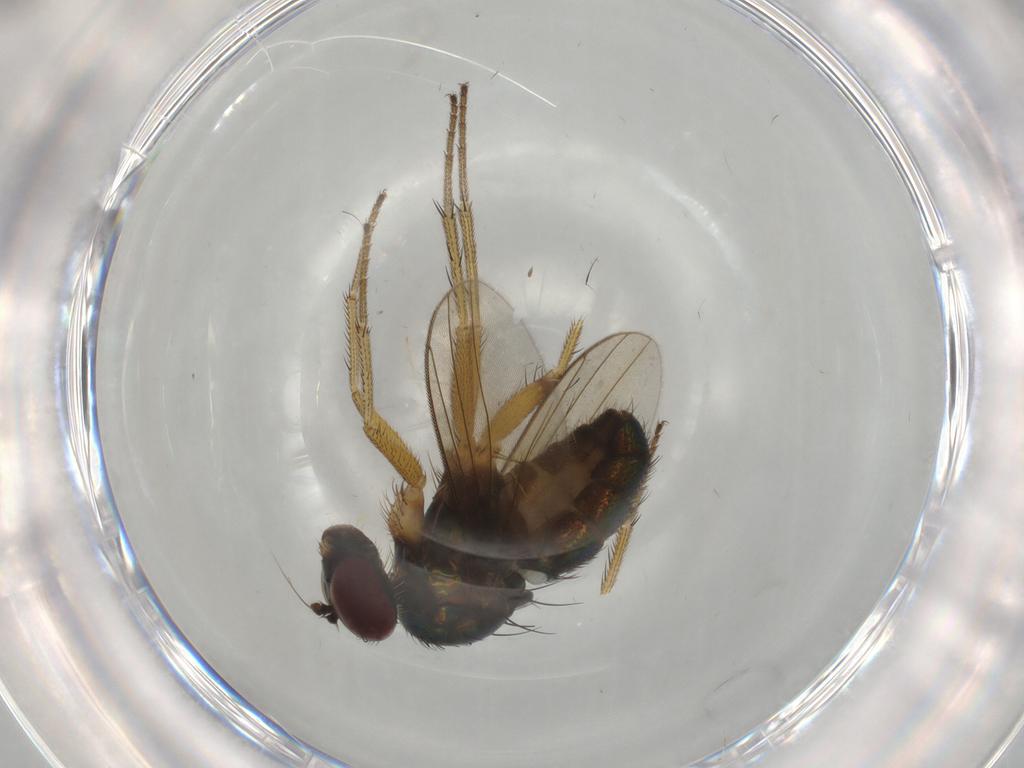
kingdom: Animalia
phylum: Arthropoda
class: Insecta
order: Diptera
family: Dolichopodidae
